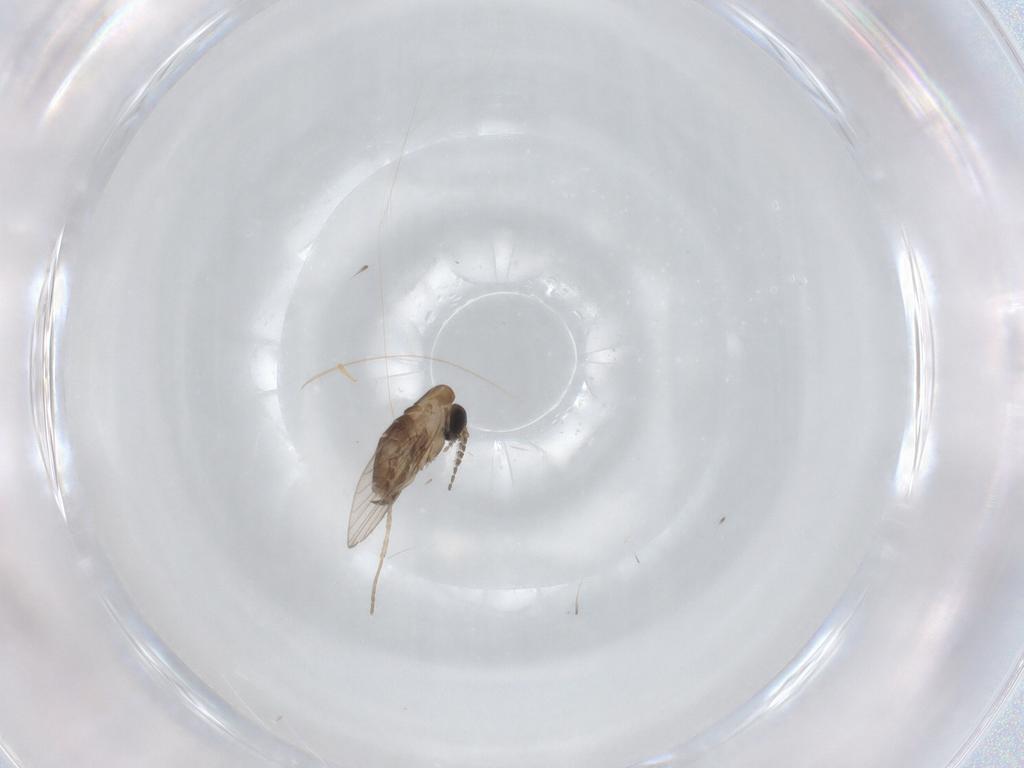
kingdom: Animalia
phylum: Arthropoda
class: Insecta
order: Diptera
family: Psychodidae
